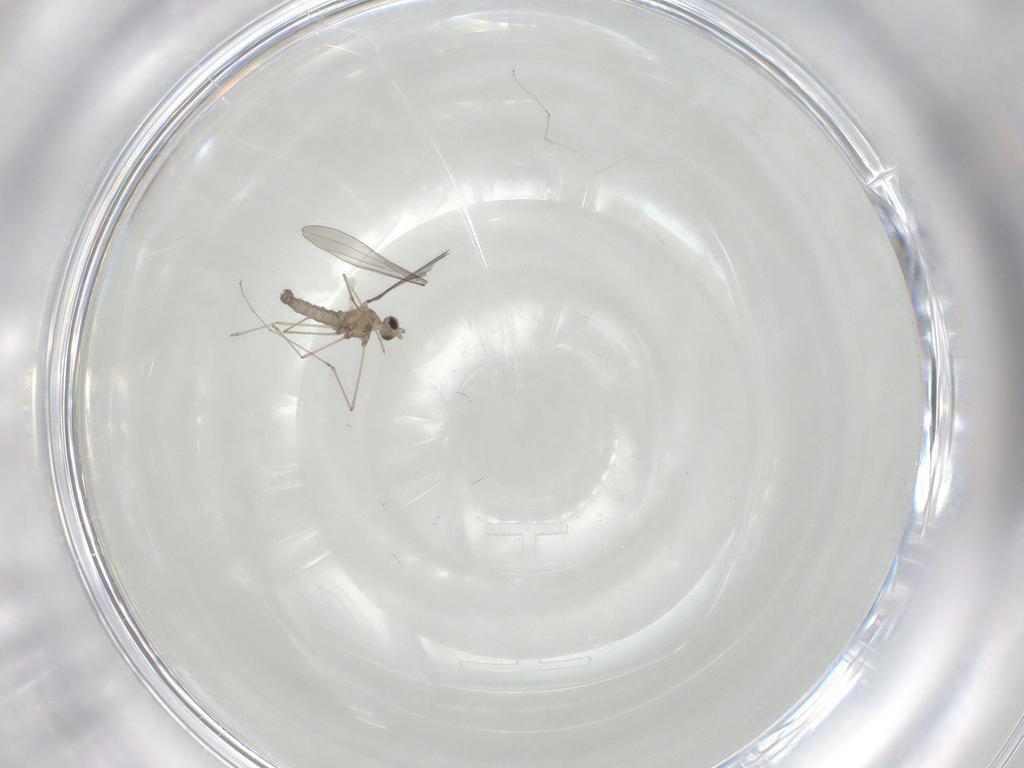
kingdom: Animalia
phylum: Arthropoda
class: Insecta
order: Diptera
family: Cecidomyiidae
